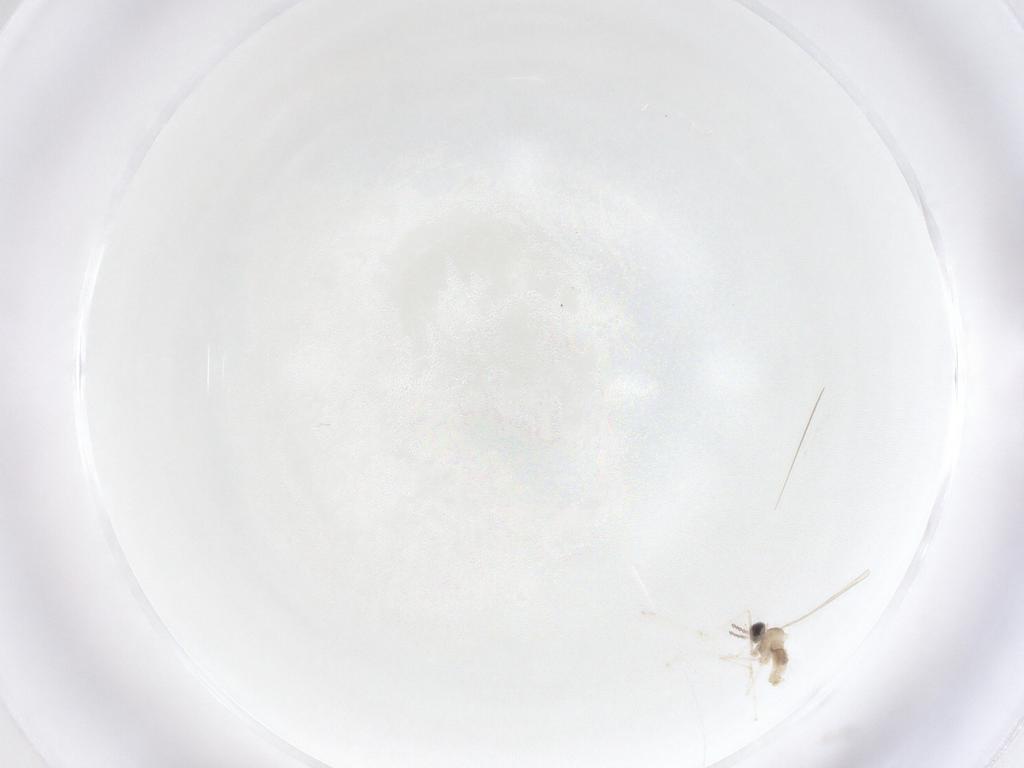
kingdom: Animalia
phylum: Arthropoda
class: Insecta
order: Diptera
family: Cecidomyiidae
